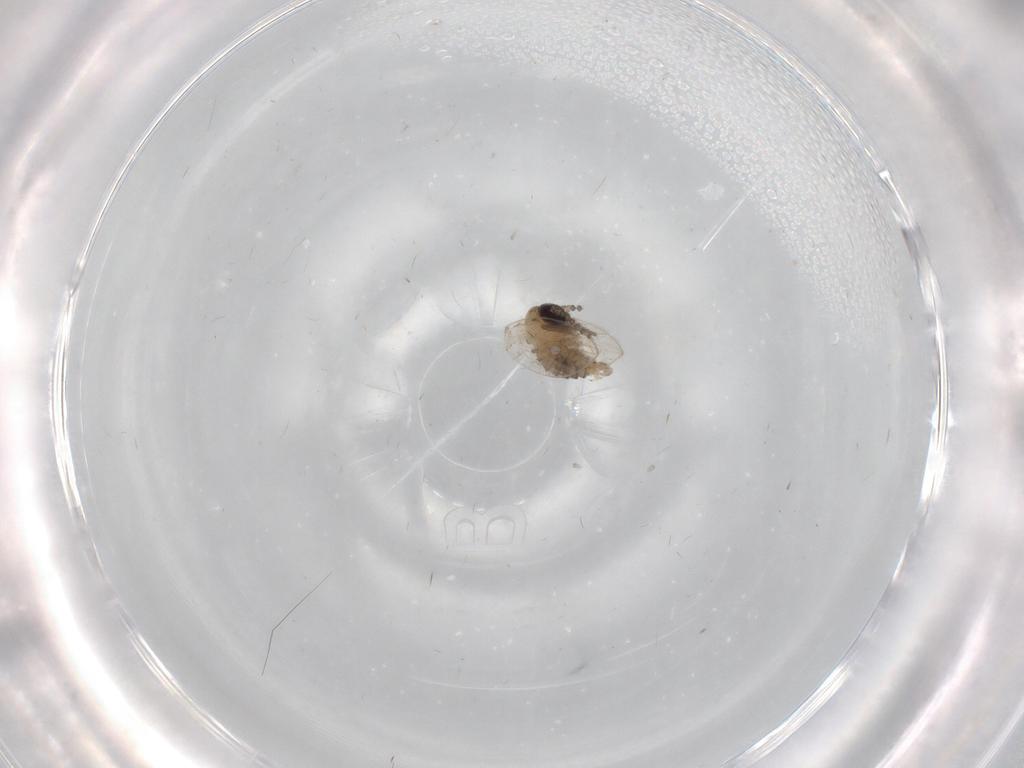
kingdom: Animalia
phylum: Arthropoda
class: Insecta
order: Diptera
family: Psychodidae
